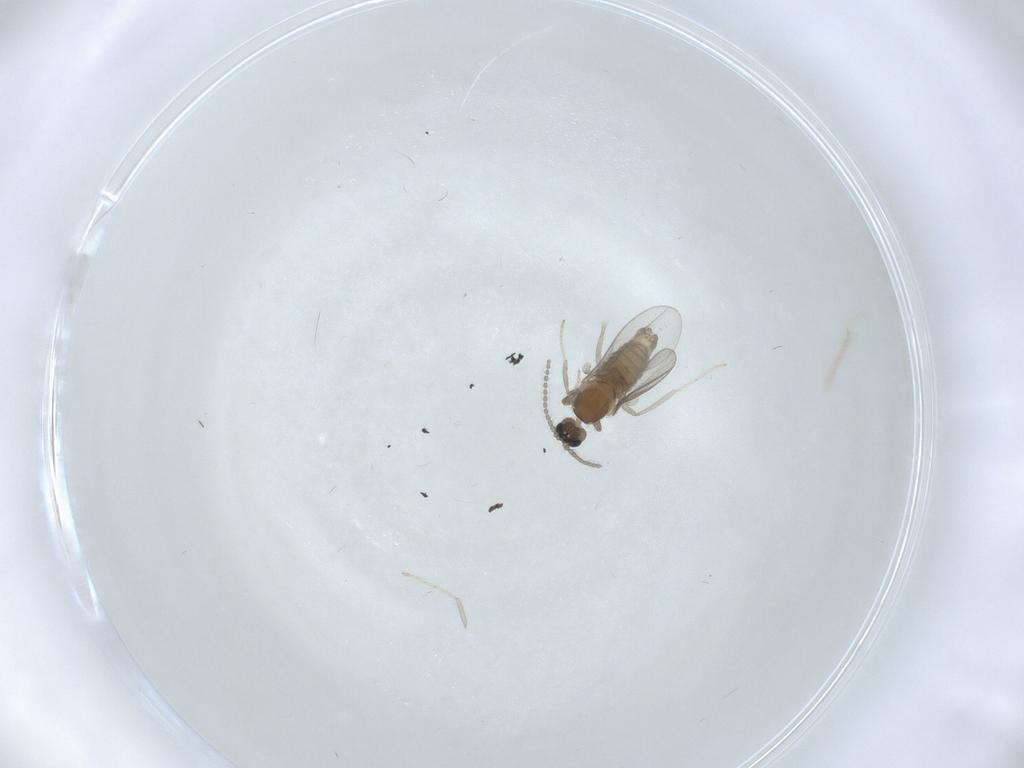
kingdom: Animalia
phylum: Arthropoda
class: Insecta
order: Diptera
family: Cecidomyiidae
